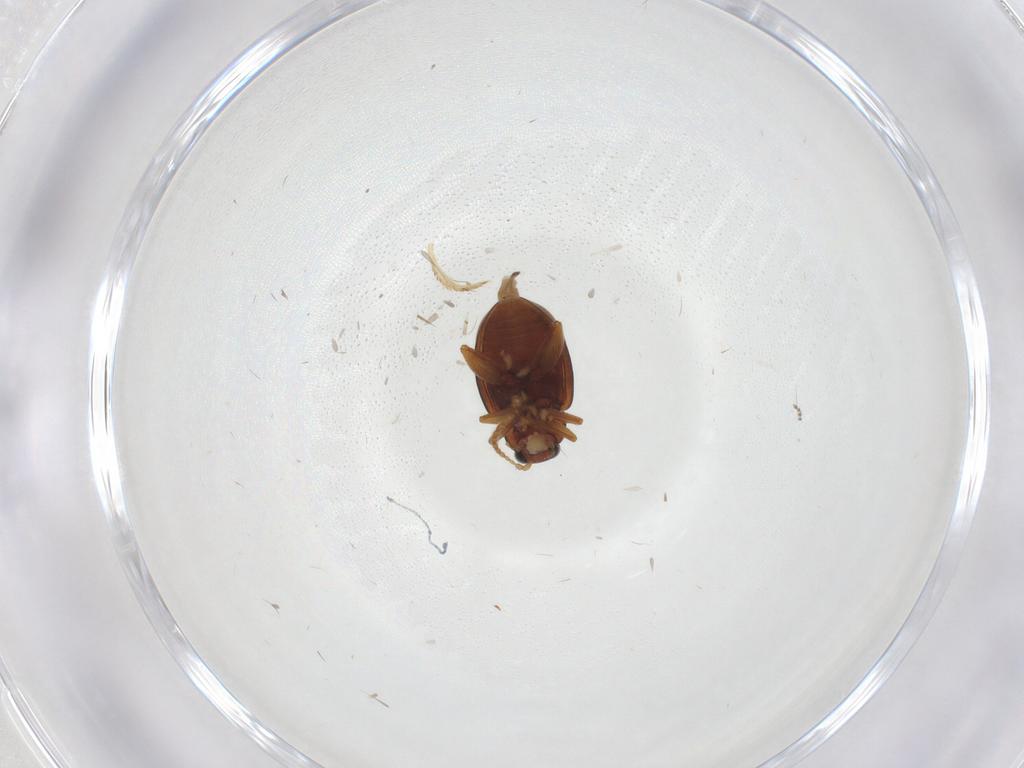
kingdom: Animalia
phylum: Arthropoda
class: Insecta
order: Coleoptera
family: Chrysomelidae
